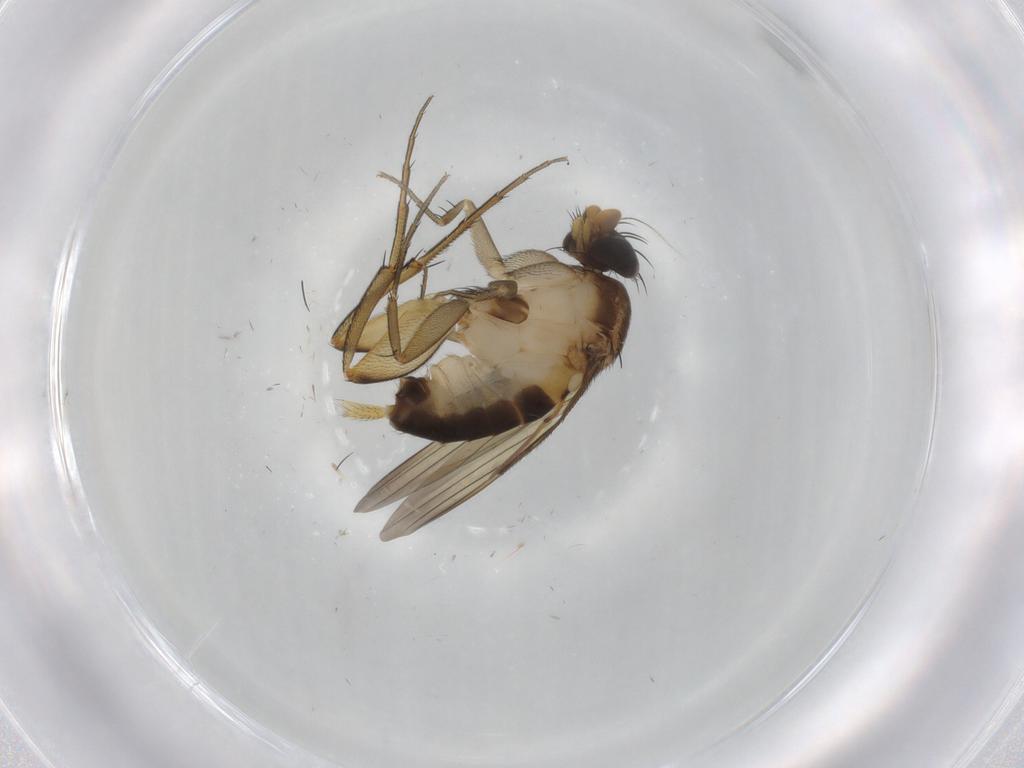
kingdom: Animalia
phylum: Arthropoda
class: Insecta
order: Diptera
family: Phoridae
